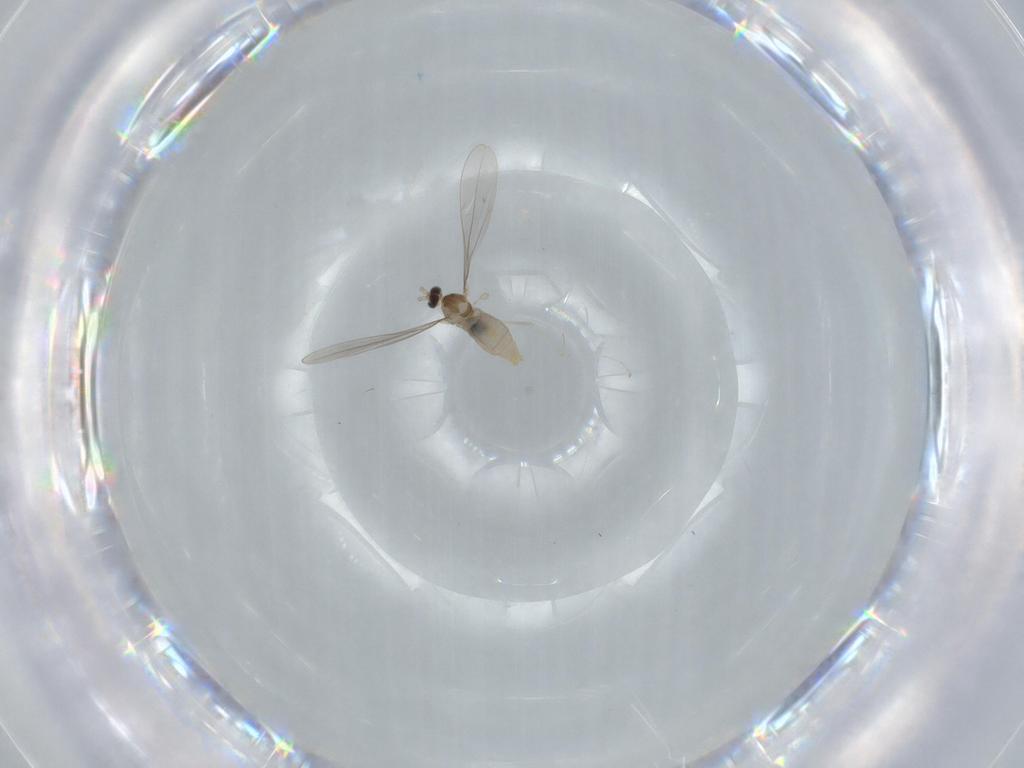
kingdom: Animalia
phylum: Arthropoda
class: Insecta
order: Diptera
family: Cecidomyiidae
